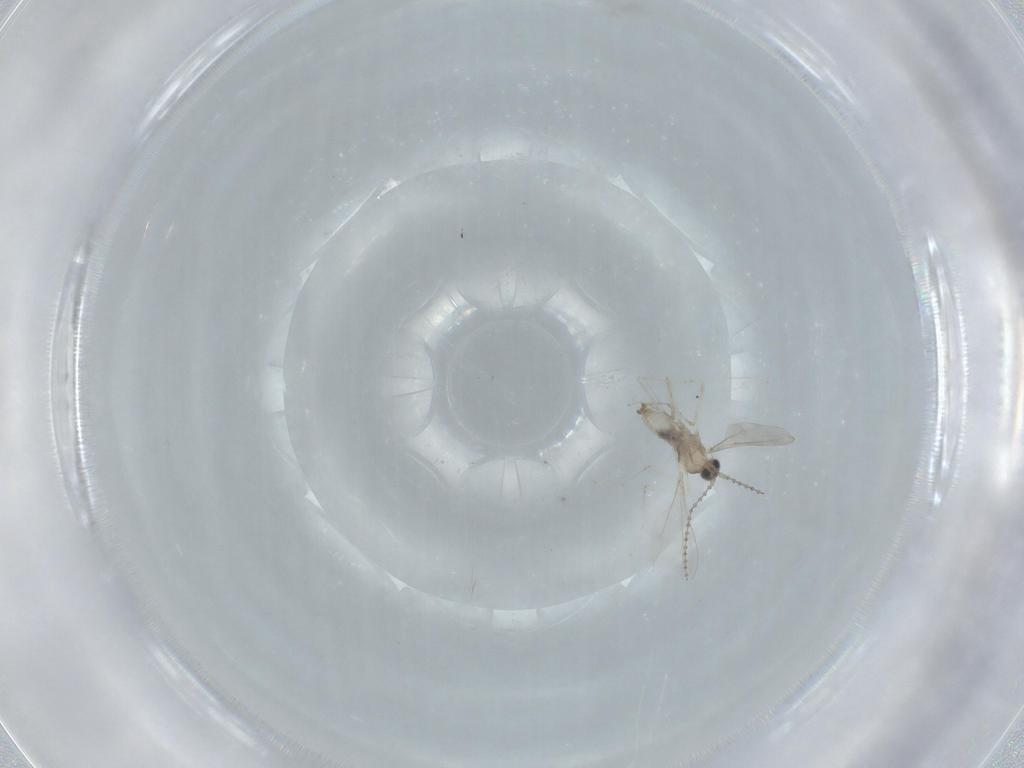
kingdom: Animalia
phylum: Arthropoda
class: Insecta
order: Diptera
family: Cecidomyiidae
